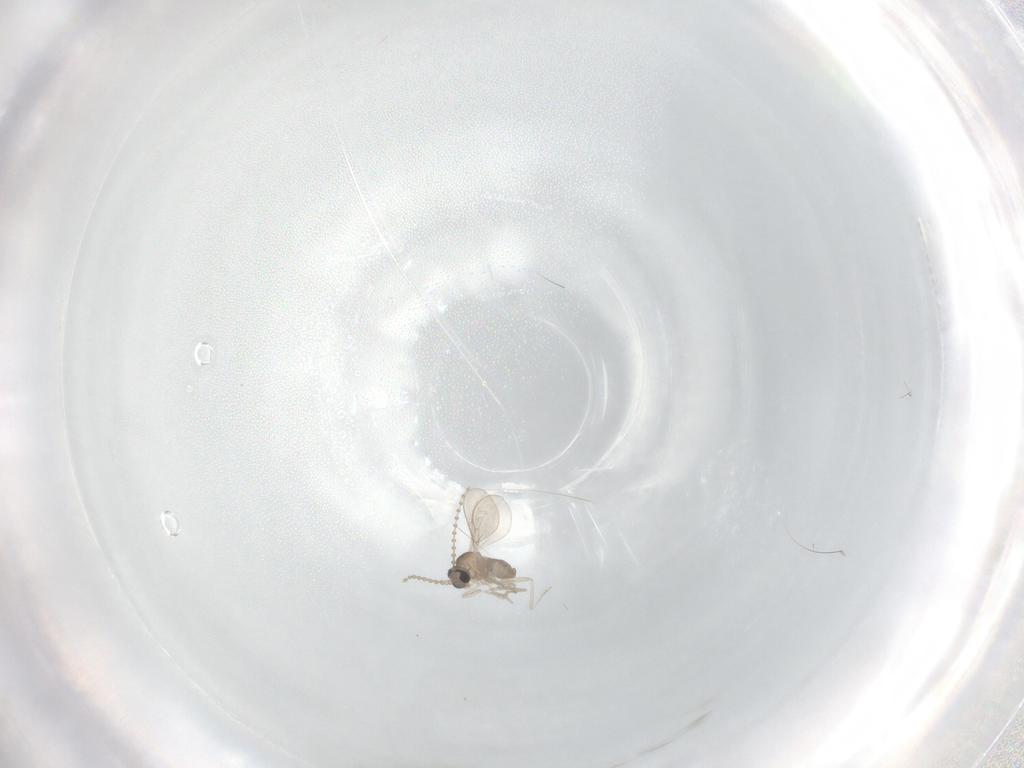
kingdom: Animalia
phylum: Arthropoda
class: Insecta
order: Diptera
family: Cecidomyiidae
